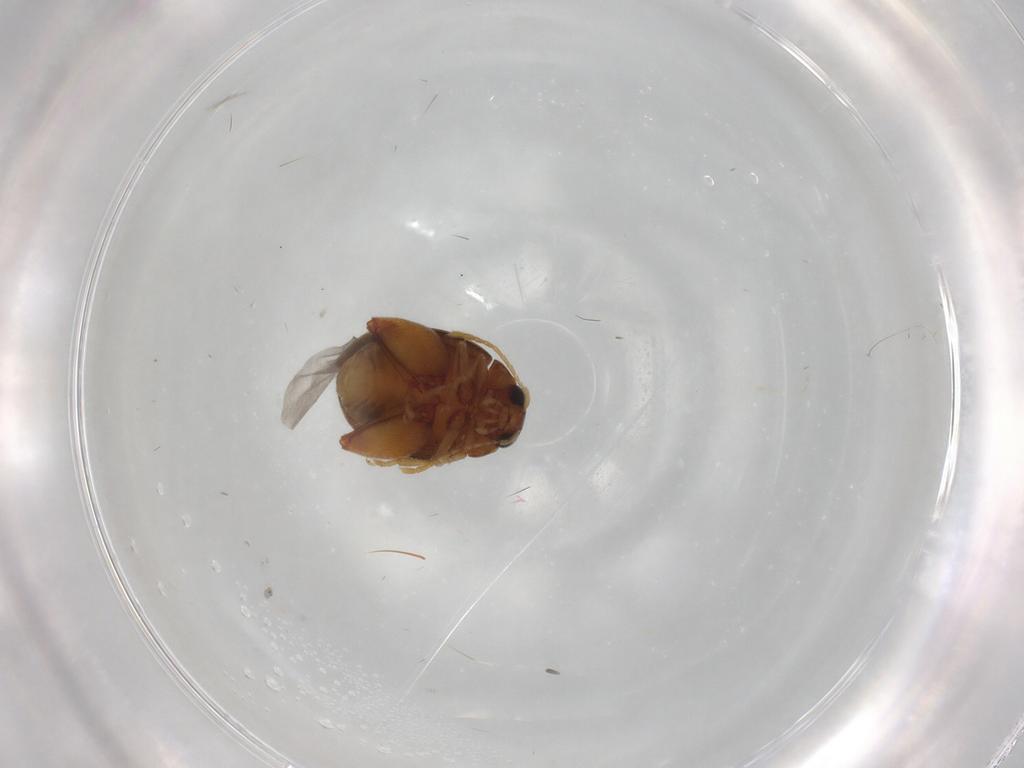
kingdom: Animalia
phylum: Arthropoda
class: Insecta
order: Coleoptera
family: Chrysomelidae
